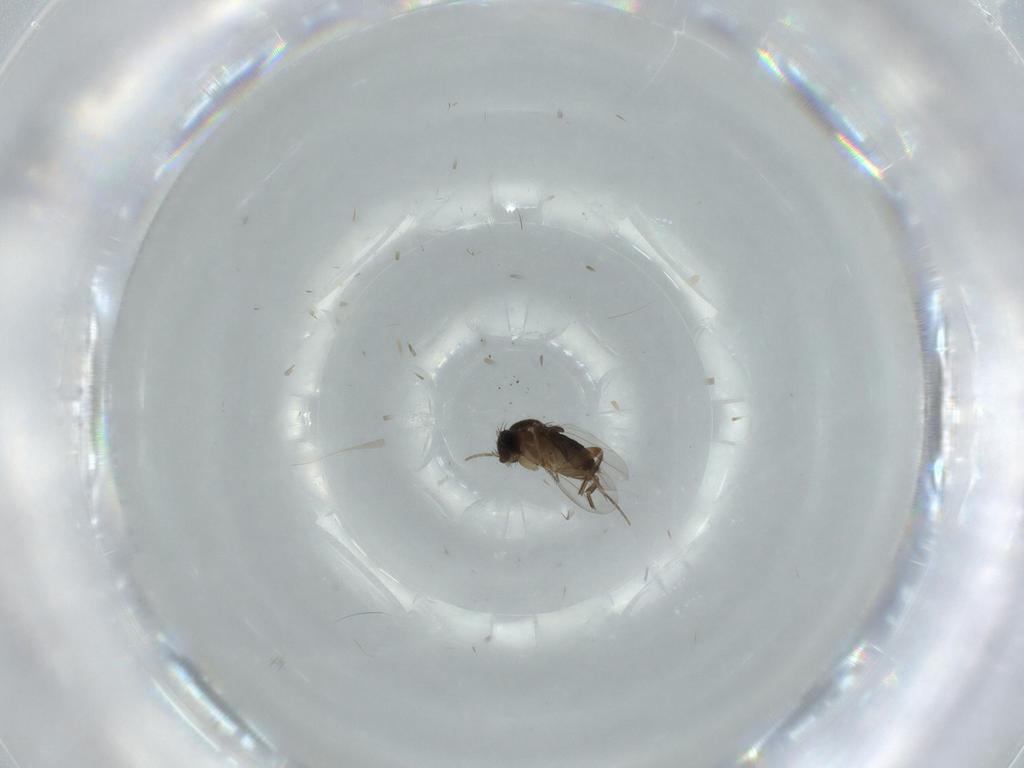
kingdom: Animalia
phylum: Arthropoda
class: Insecta
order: Diptera
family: Phoridae
